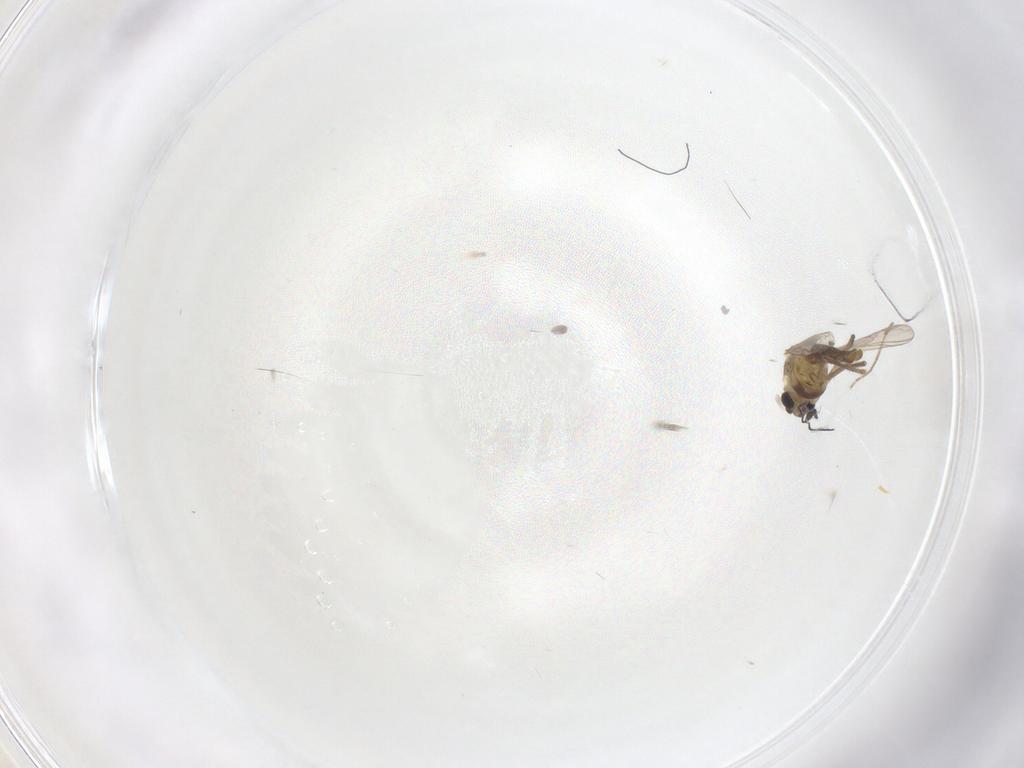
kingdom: Animalia
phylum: Arthropoda
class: Insecta
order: Diptera
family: Chironomidae
